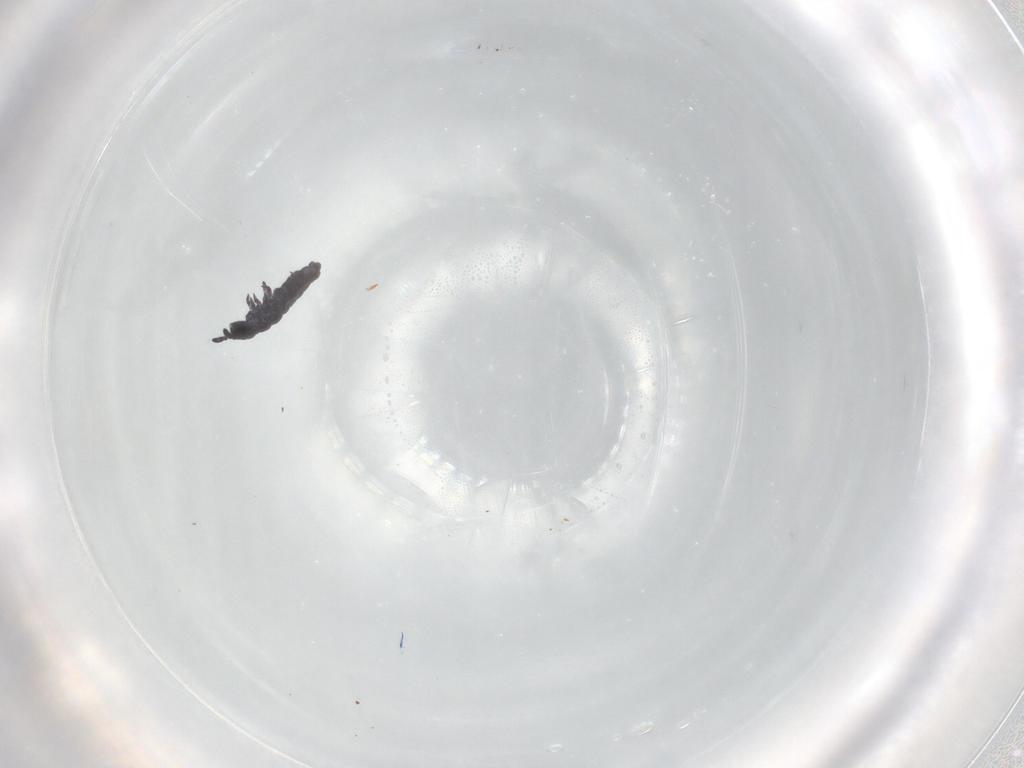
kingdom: Animalia
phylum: Arthropoda
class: Collembola
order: Poduromorpha
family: Hypogastruridae
